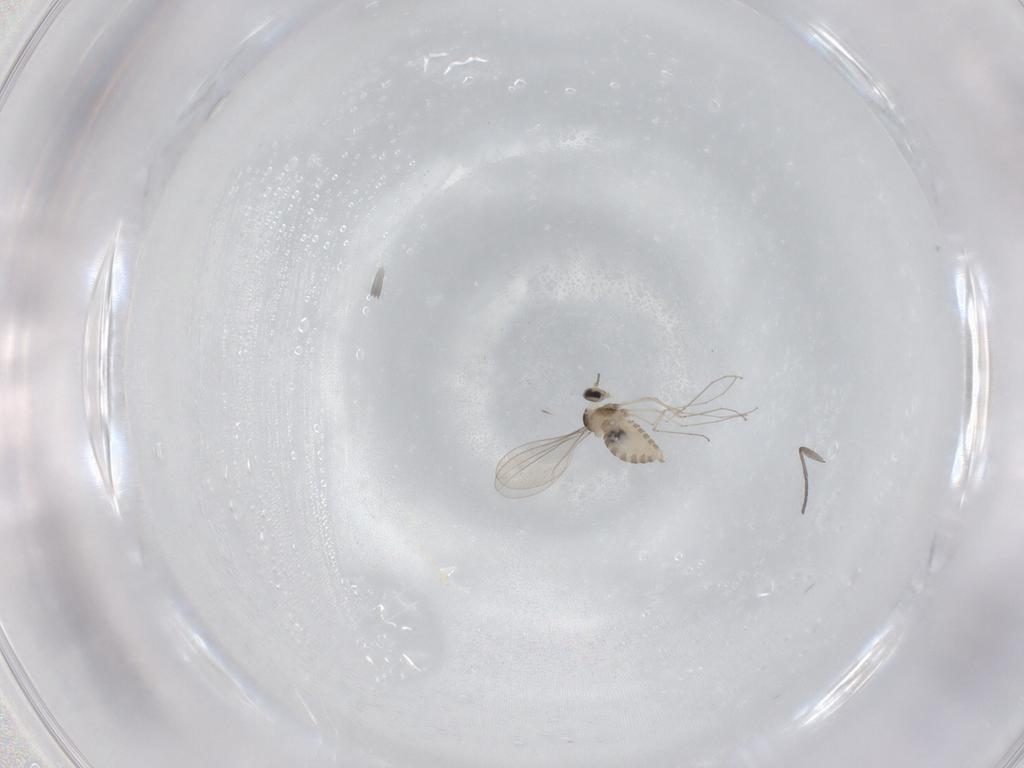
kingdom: Animalia
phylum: Arthropoda
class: Insecta
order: Diptera
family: Cecidomyiidae
